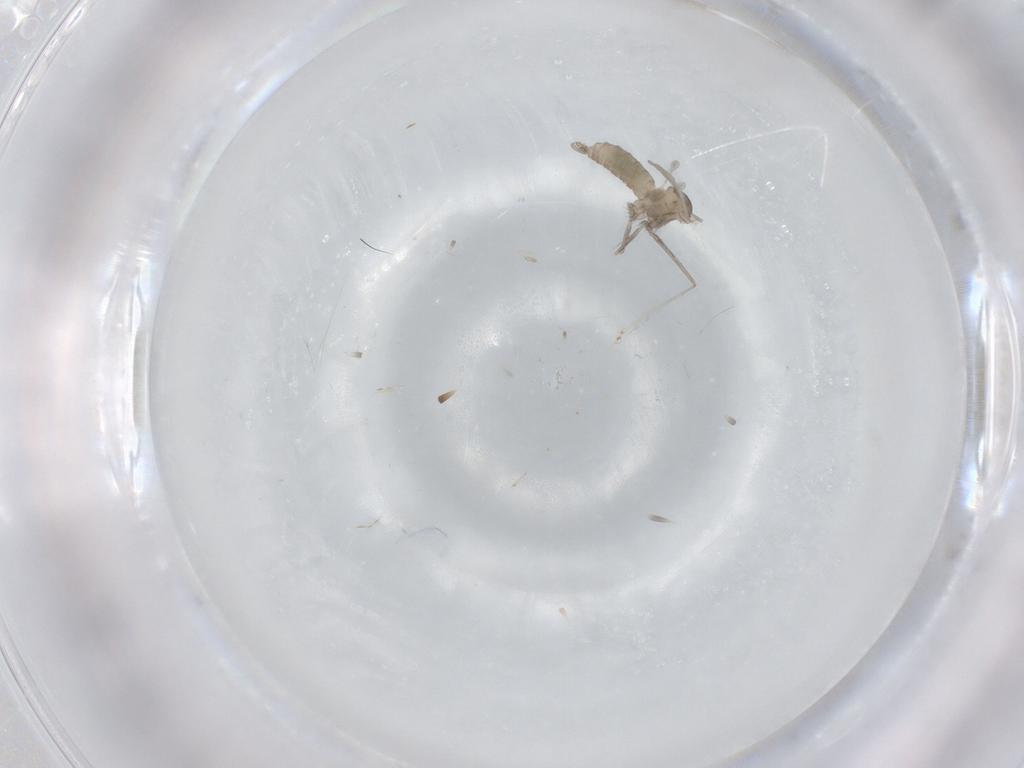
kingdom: Animalia
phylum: Arthropoda
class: Insecta
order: Diptera
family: Cecidomyiidae
